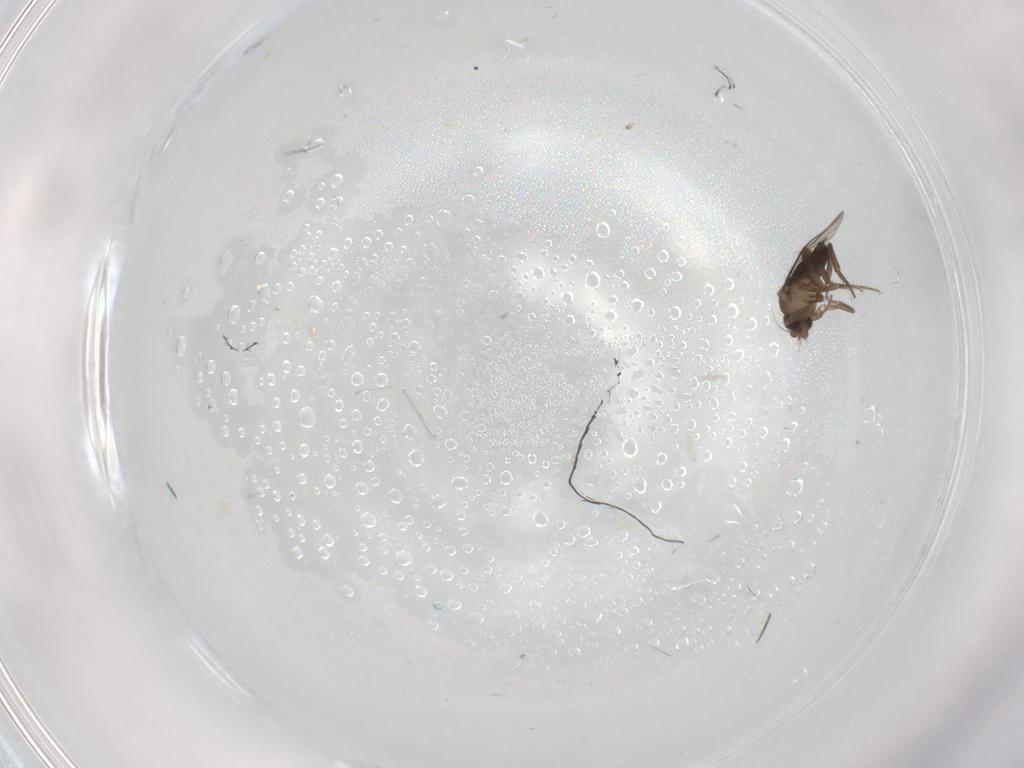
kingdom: Animalia
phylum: Arthropoda
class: Insecta
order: Diptera
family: Phoridae
